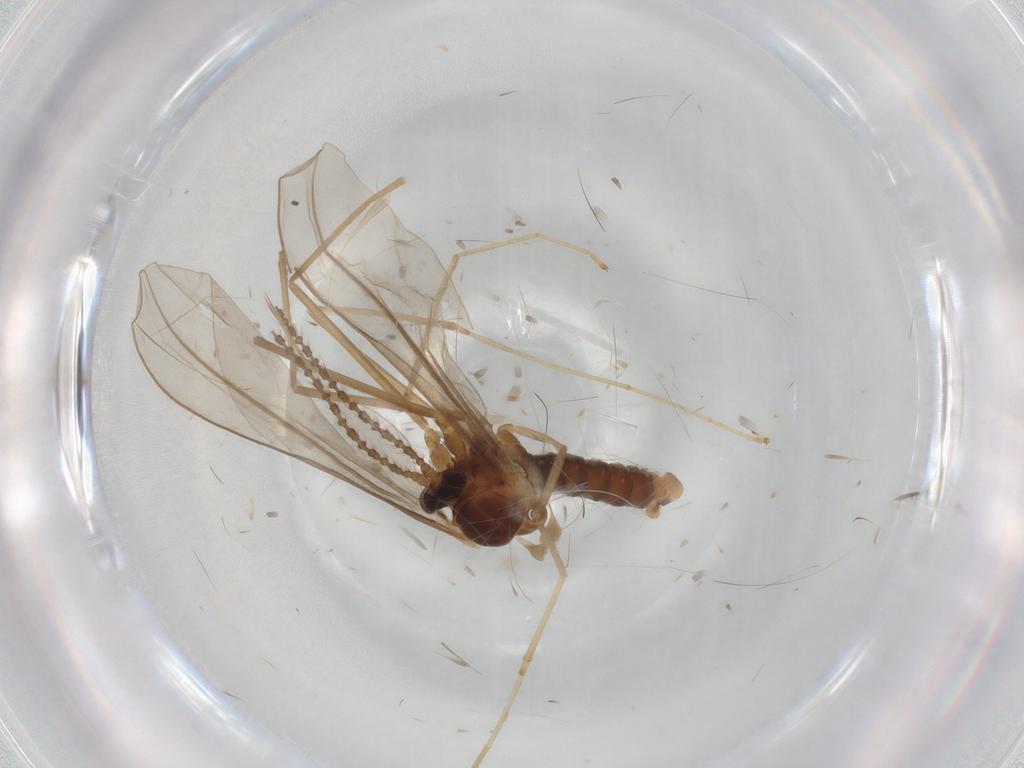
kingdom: Animalia
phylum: Arthropoda
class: Insecta
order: Diptera
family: Cecidomyiidae
